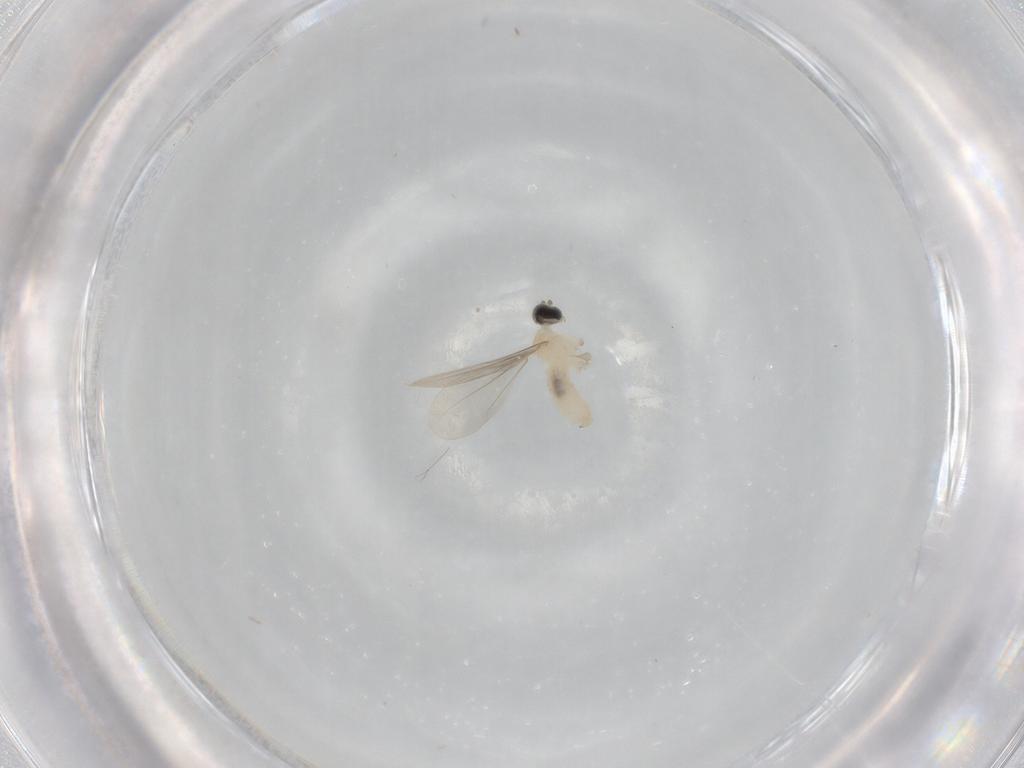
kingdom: Animalia
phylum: Arthropoda
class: Insecta
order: Diptera
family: Cecidomyiidae
